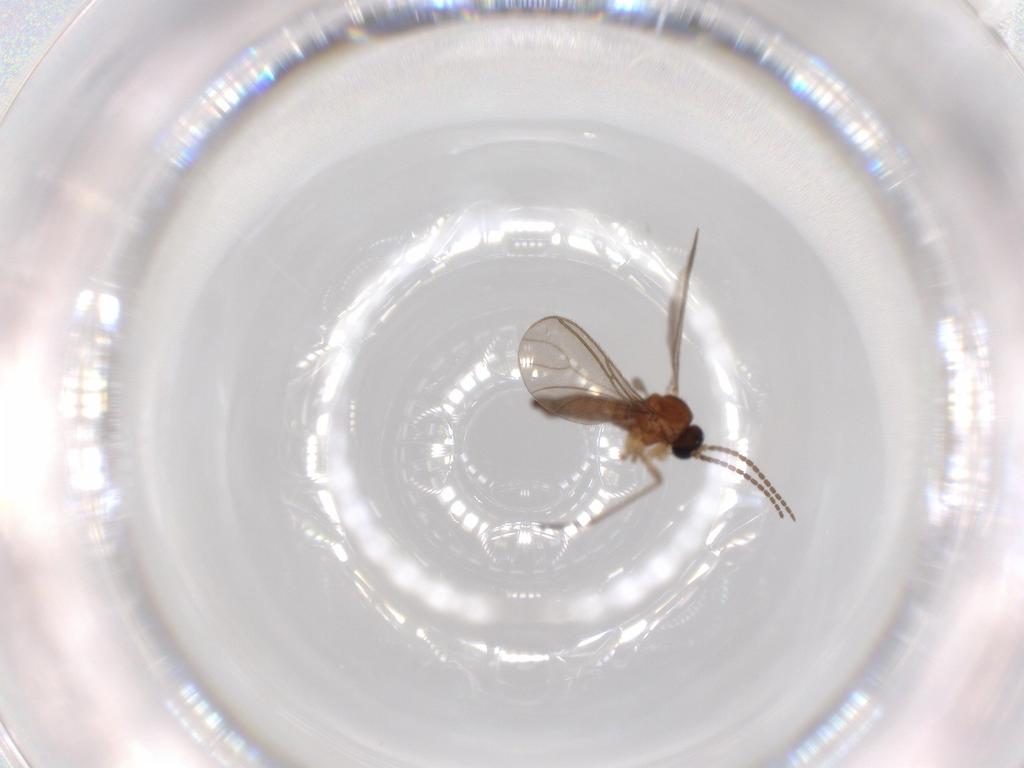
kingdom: Animalia
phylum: Arthropoda
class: Insecta
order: Diptera
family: Sciaridae
